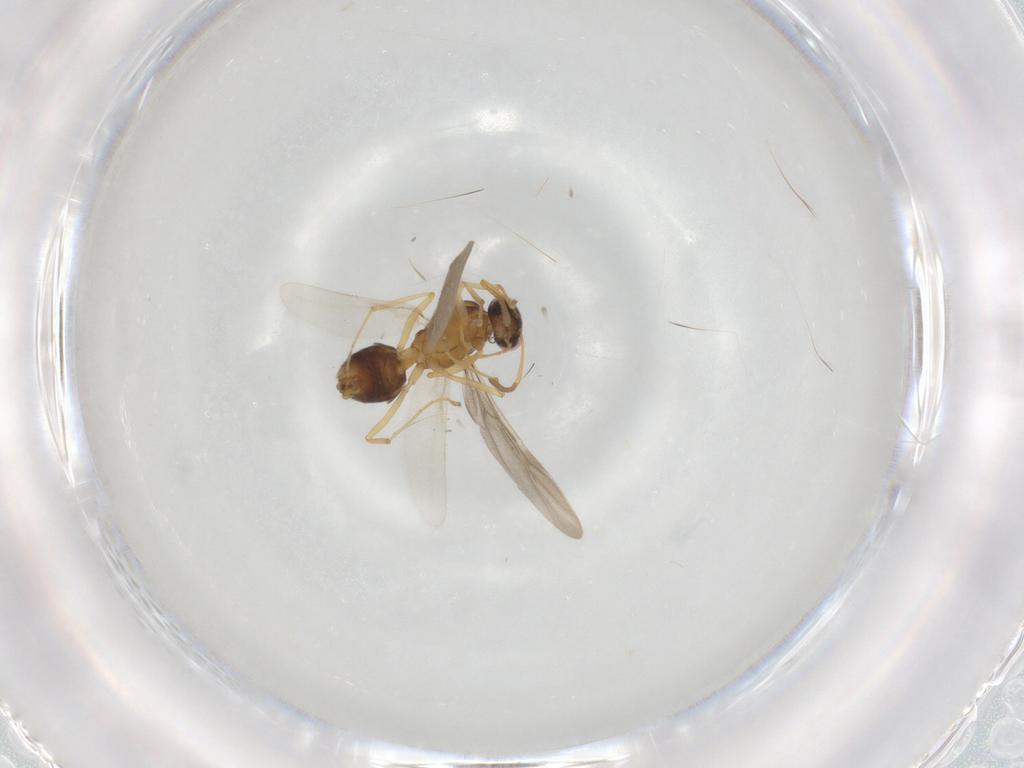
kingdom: Animalia
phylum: Arthropoda
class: Insecta
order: Hymenoptera
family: Formicidae
